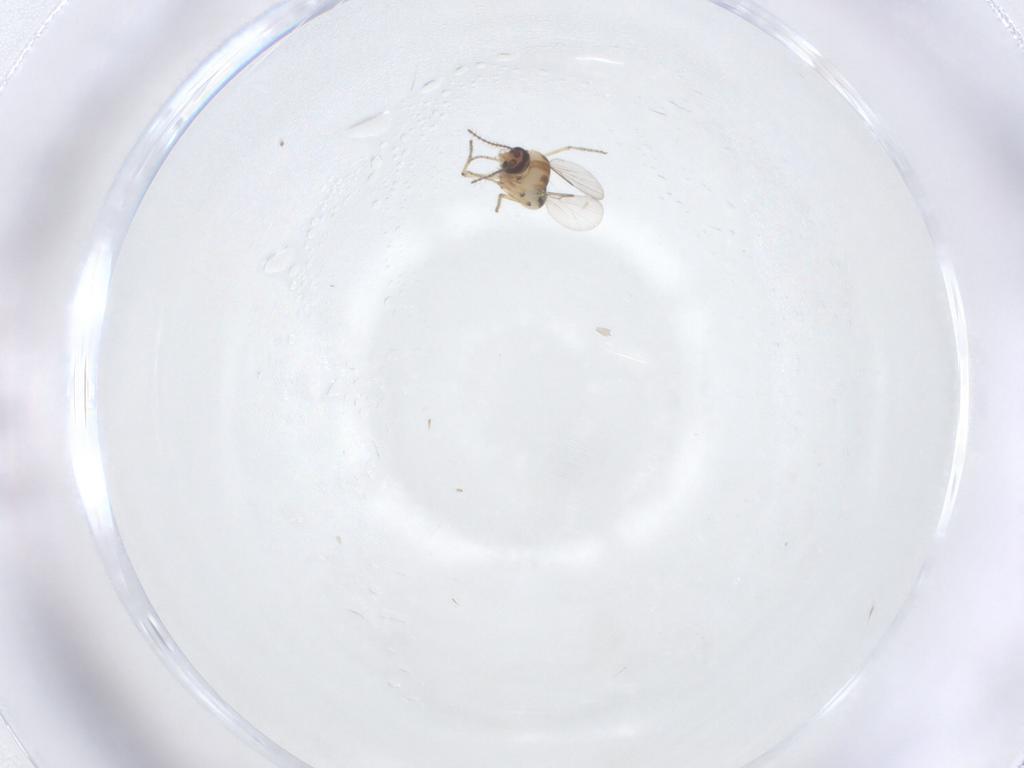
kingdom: Animalia
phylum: Arthropoda
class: Insecta
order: Diptera
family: Ceratopogonidae
